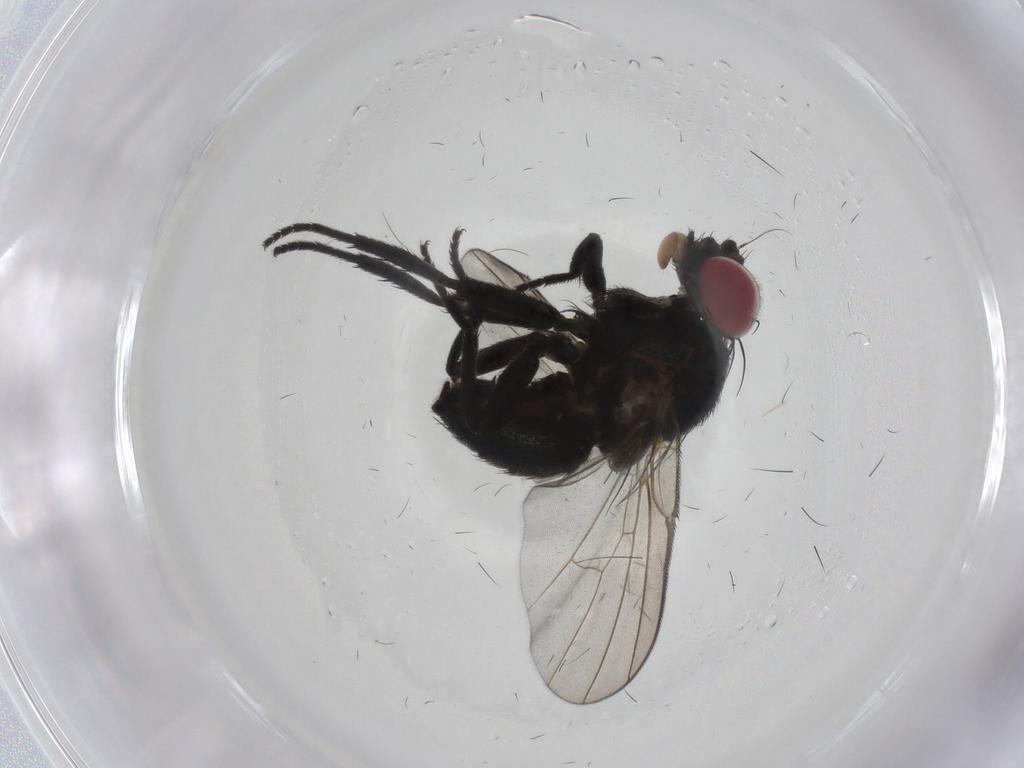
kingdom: Animalia
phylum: Arthropoda
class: Insecta
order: Diptera
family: Agromyzidae
